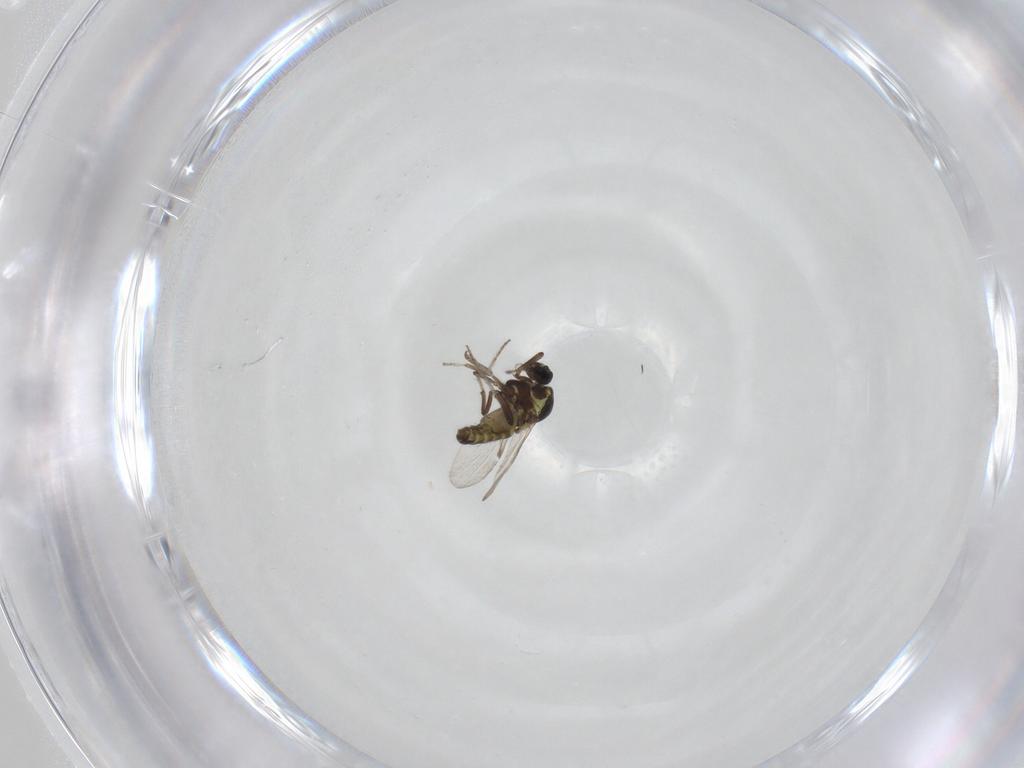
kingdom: Animalia
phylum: Arthropoda
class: Insecta
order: Diptera
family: Ceratopogonidae
